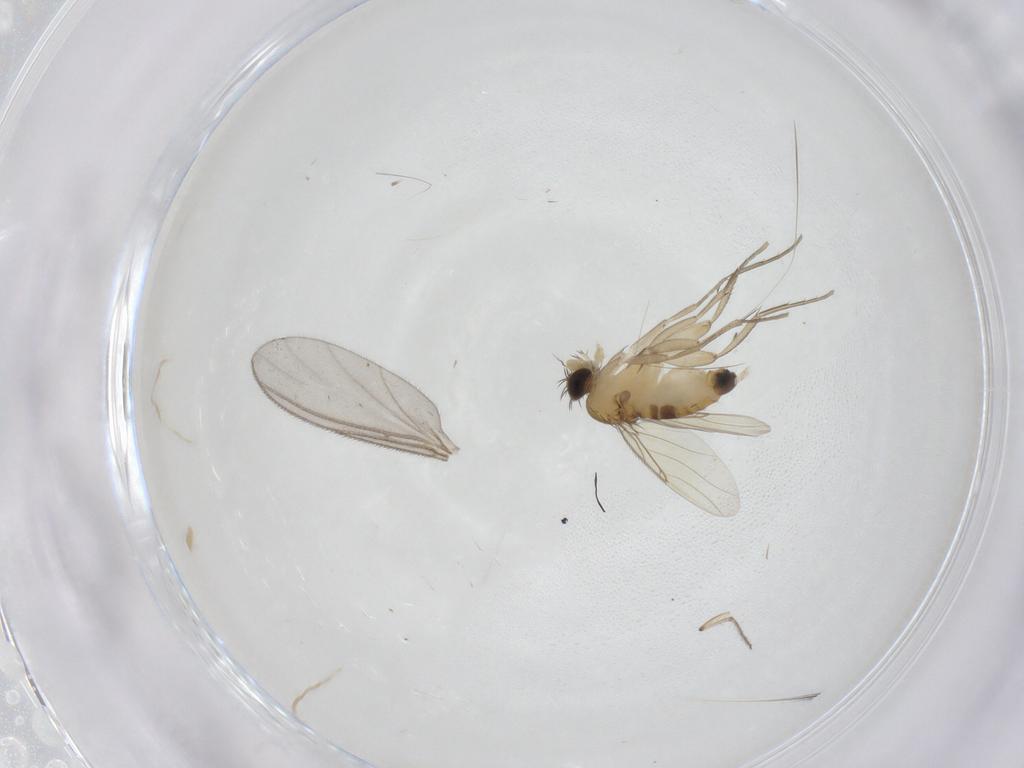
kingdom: Animalia
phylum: Arthropoda
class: Insecta
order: Diptera
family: Phoridae
